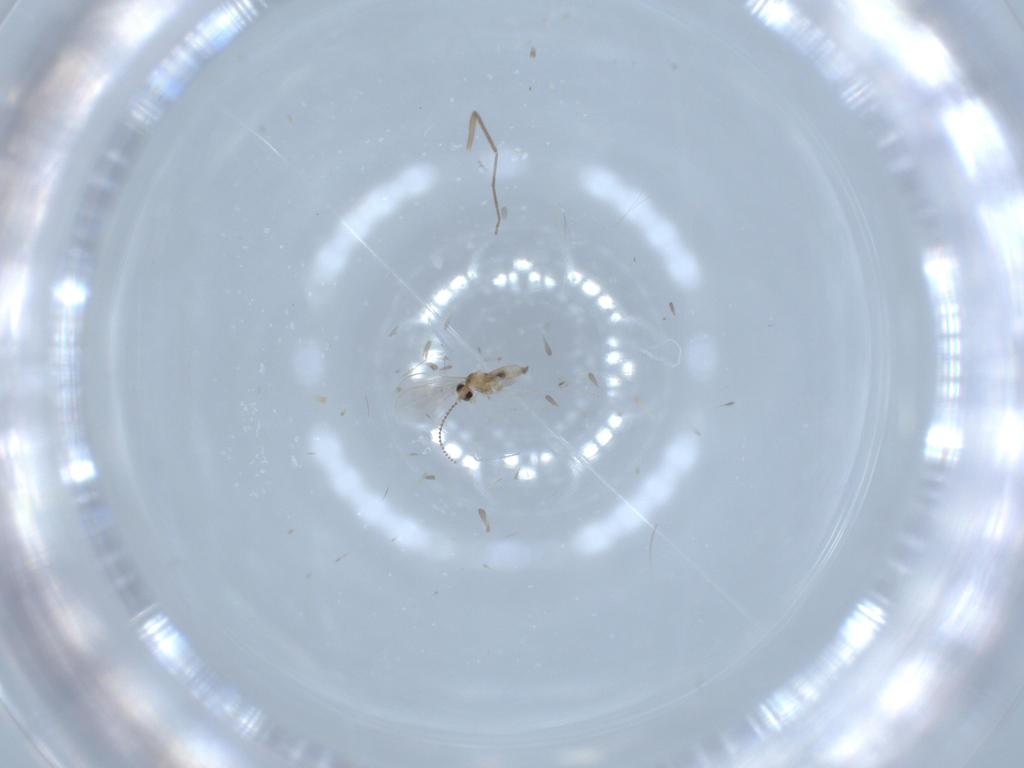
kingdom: Animalia
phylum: Arthropoda
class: Insecta
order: Diptera
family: Chironomidae
